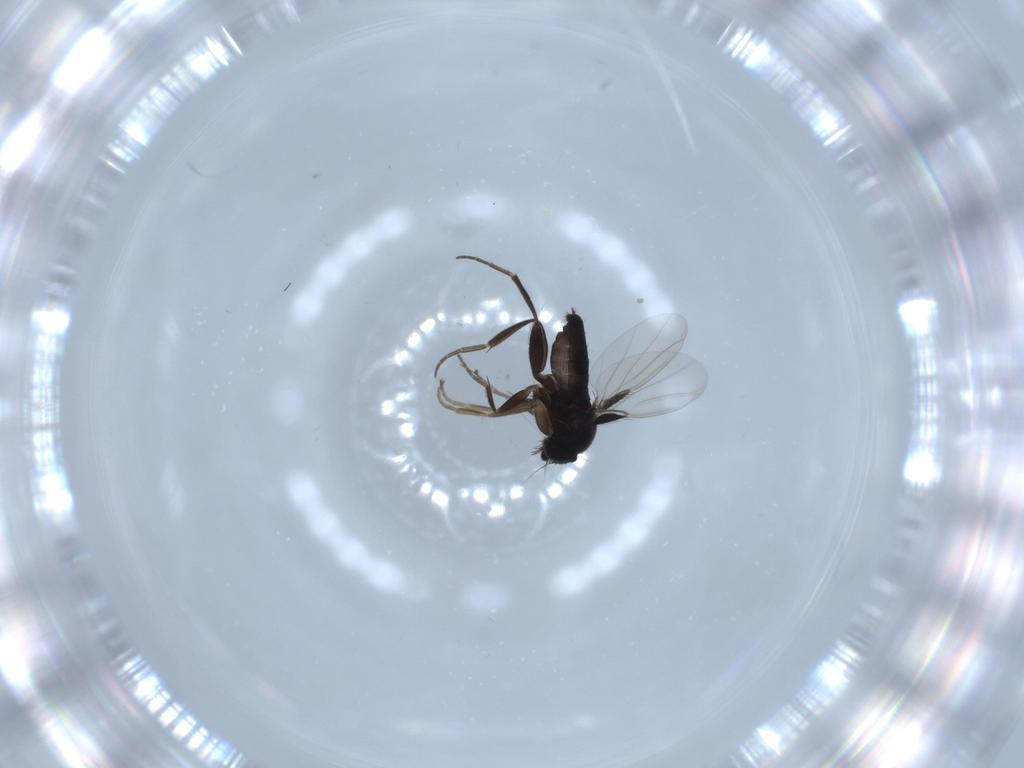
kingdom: Animalia
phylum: Arthropoda
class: Insecta
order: Diptera
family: Phoridae
